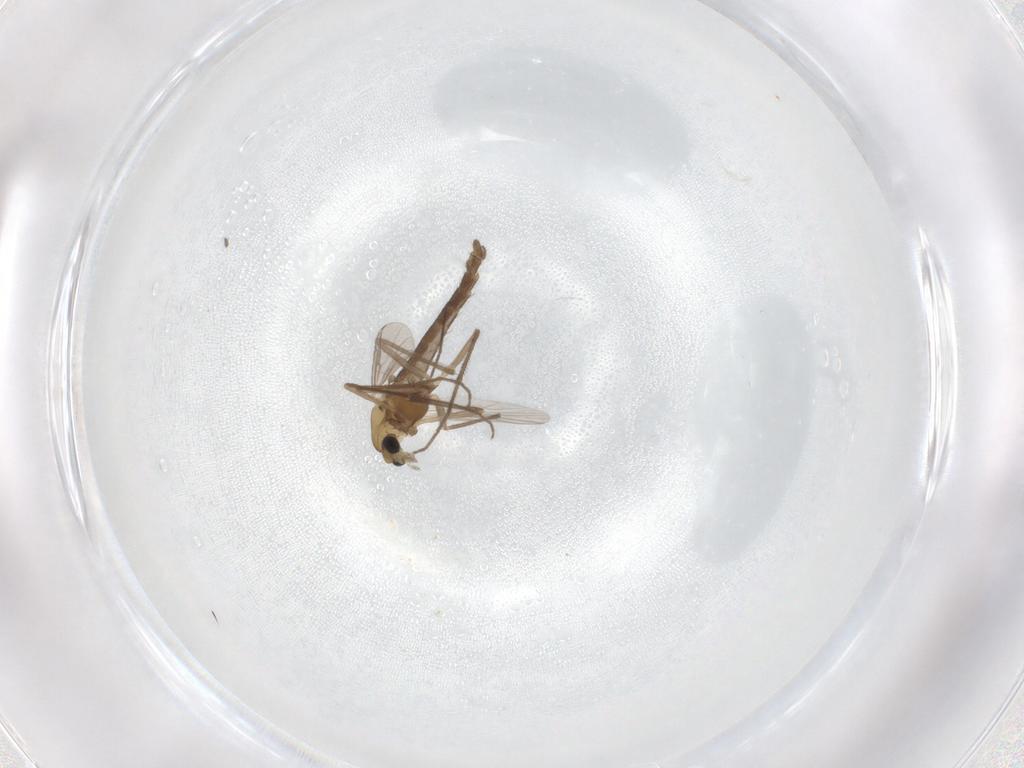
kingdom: Animalia
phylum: Arthropoda
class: Insecta
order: Diptera
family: Chironomidae
